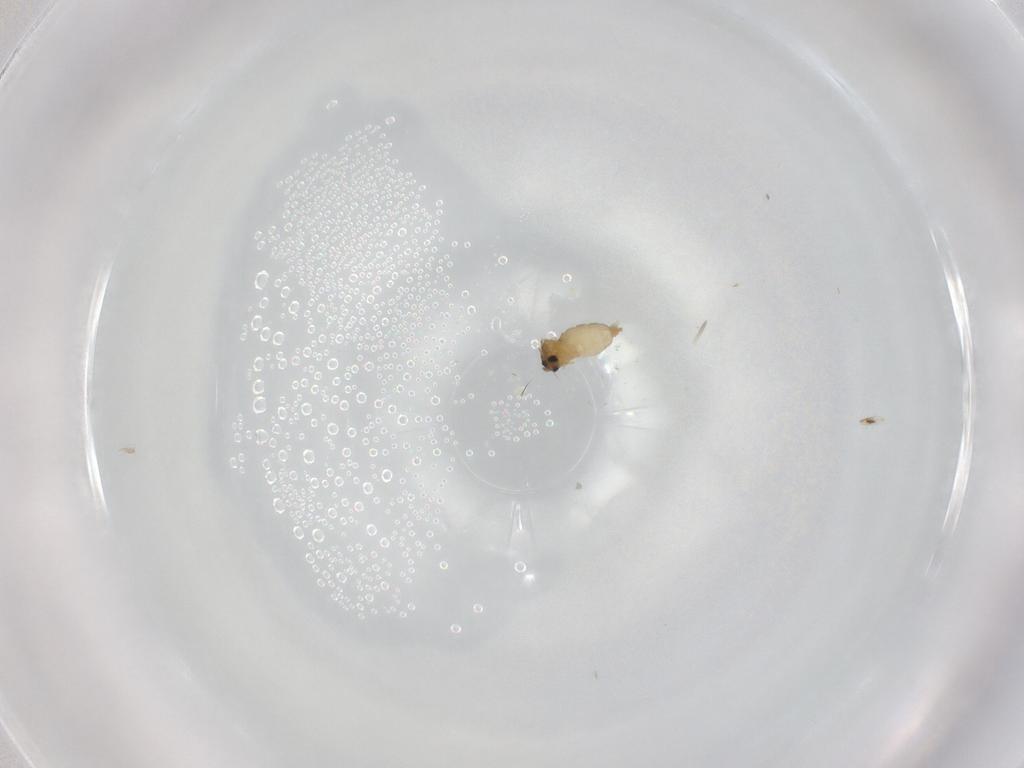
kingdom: Animalia
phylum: Arthropoda
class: Insecta
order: Diptera
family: Cecidomyiidae
